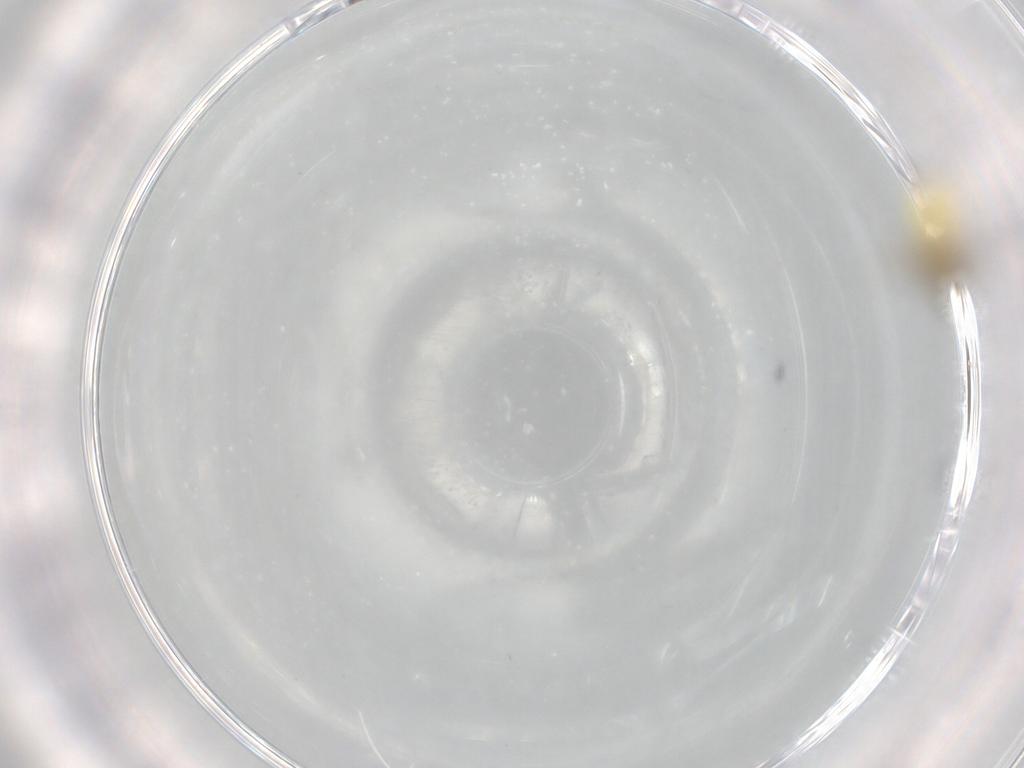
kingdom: Animalia
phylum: Arthropoda
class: Insecta
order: Diptera
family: Ceratopogonidae
